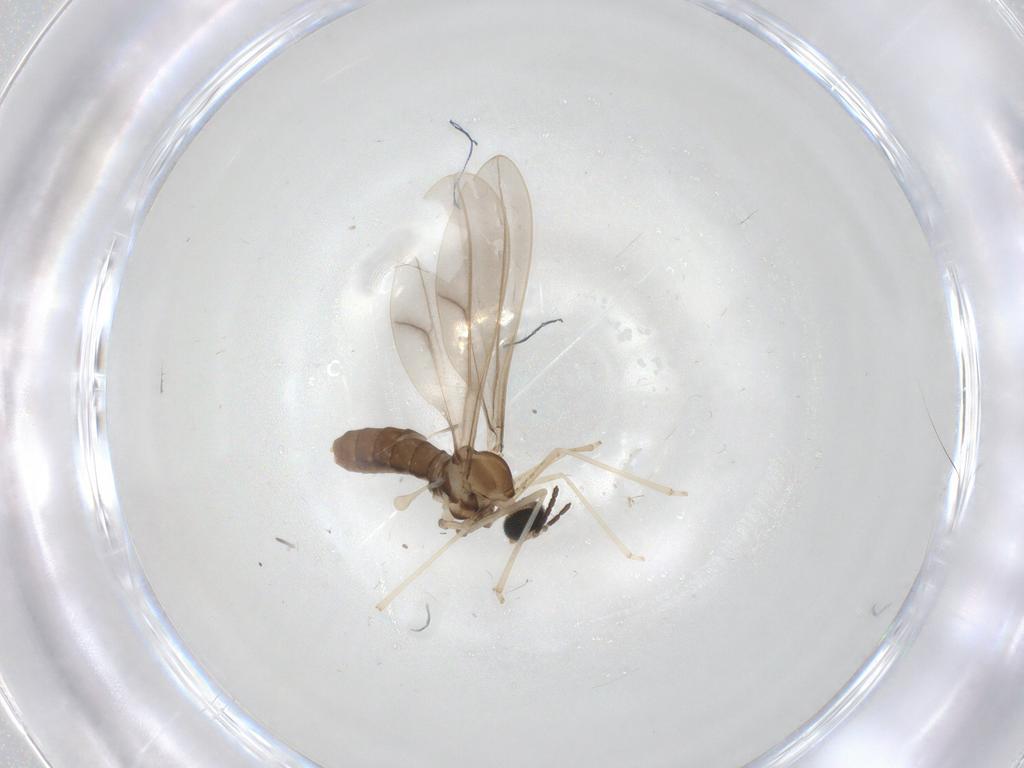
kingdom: Animalia
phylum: Arthropoda
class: Insecta
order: Diptera
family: Cecidomyiidae
